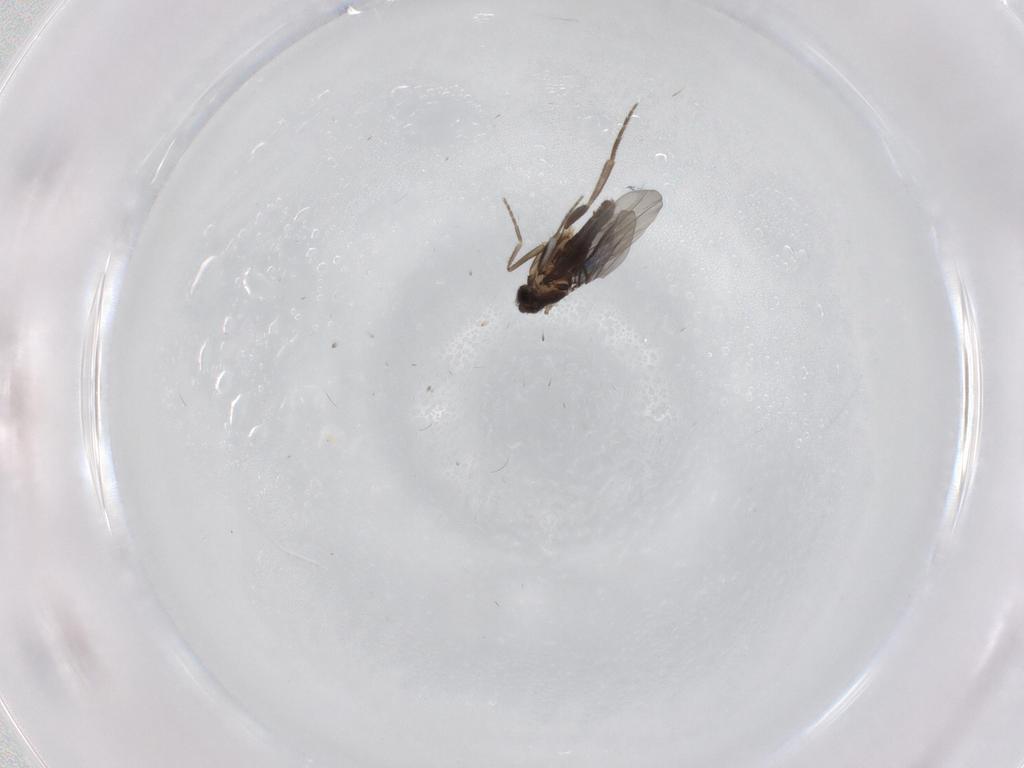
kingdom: Animalia
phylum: Arthropoda
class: Insecta
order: Diptera
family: Phoridae
